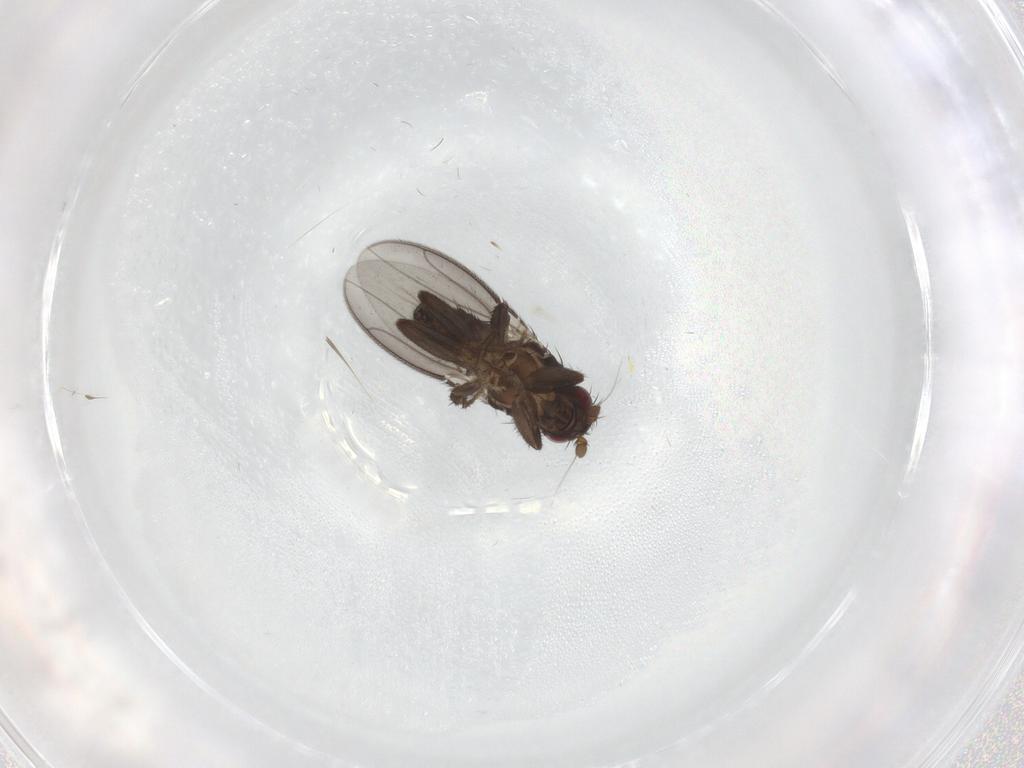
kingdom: Animalia
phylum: Arthropoda
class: Insecta
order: Diptera
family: Sphaeroceridae
